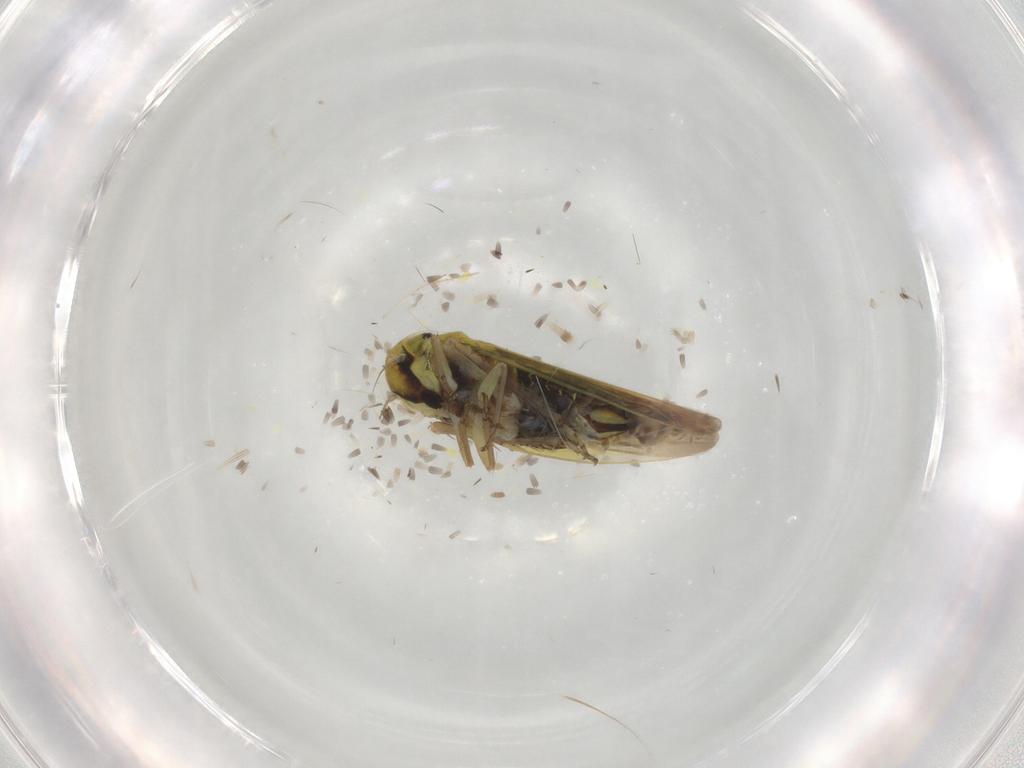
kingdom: Animalia
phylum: Arthropoda
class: Insecta
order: Hemiptera
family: Cicadellidae
